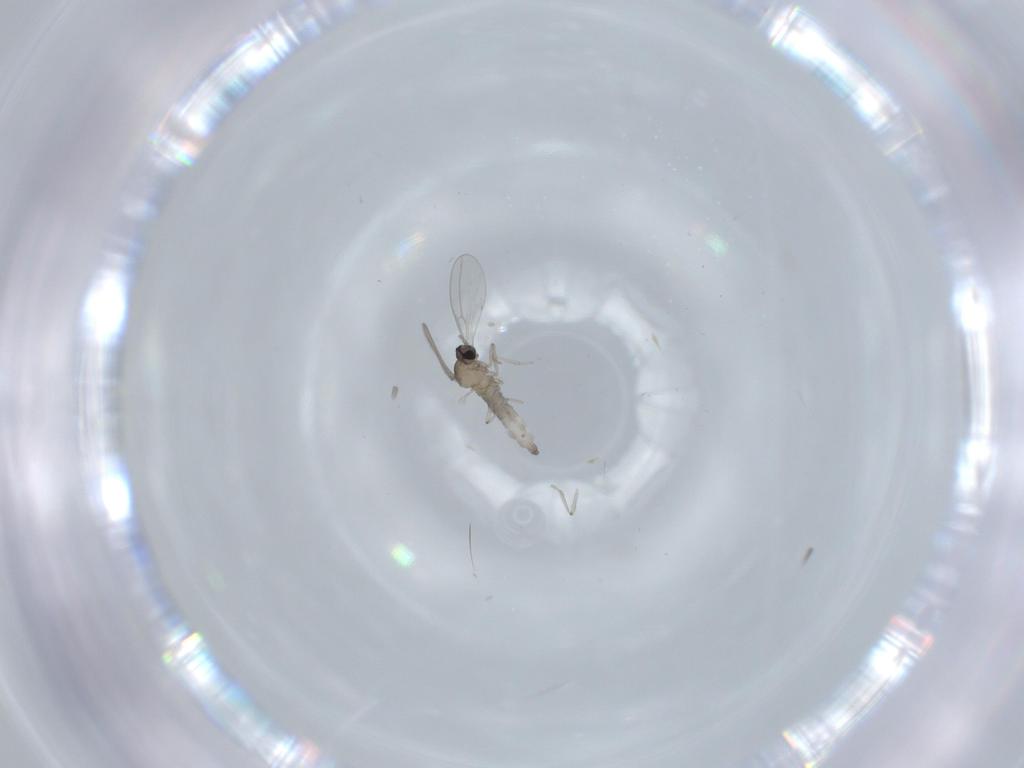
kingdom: Animalia
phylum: Arthropoda
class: Insecta
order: Diptera
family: Cecidomyiidae
